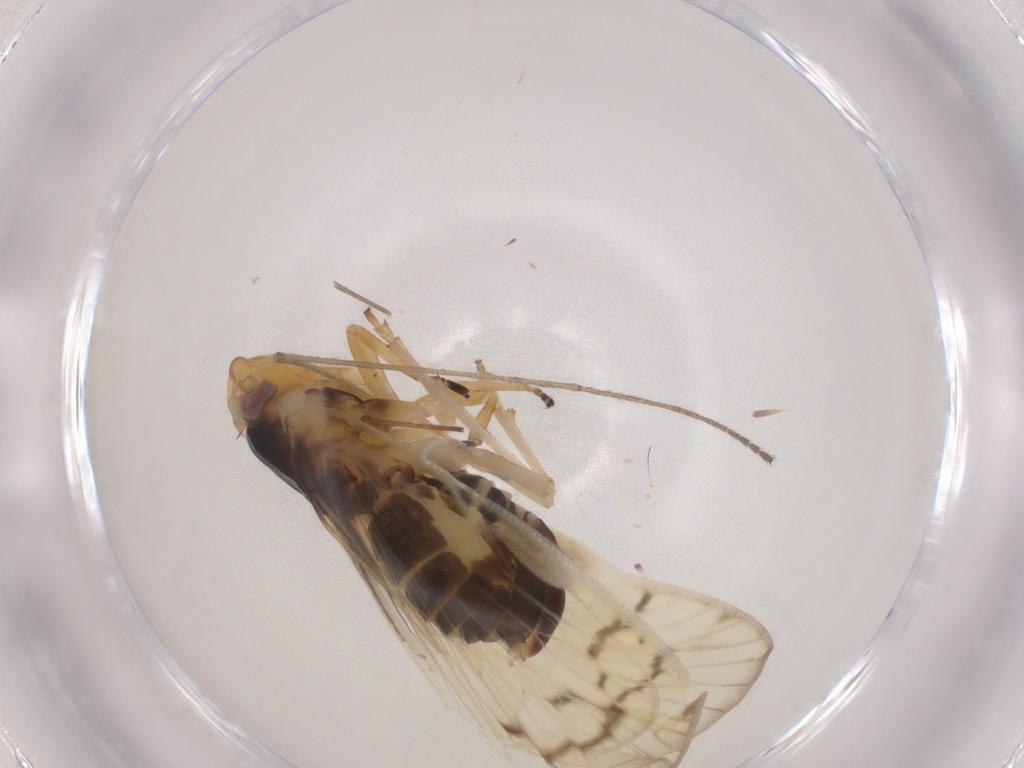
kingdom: Animalia
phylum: Arthropoda
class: Insecta
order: Hemiptera
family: Cixiidae
